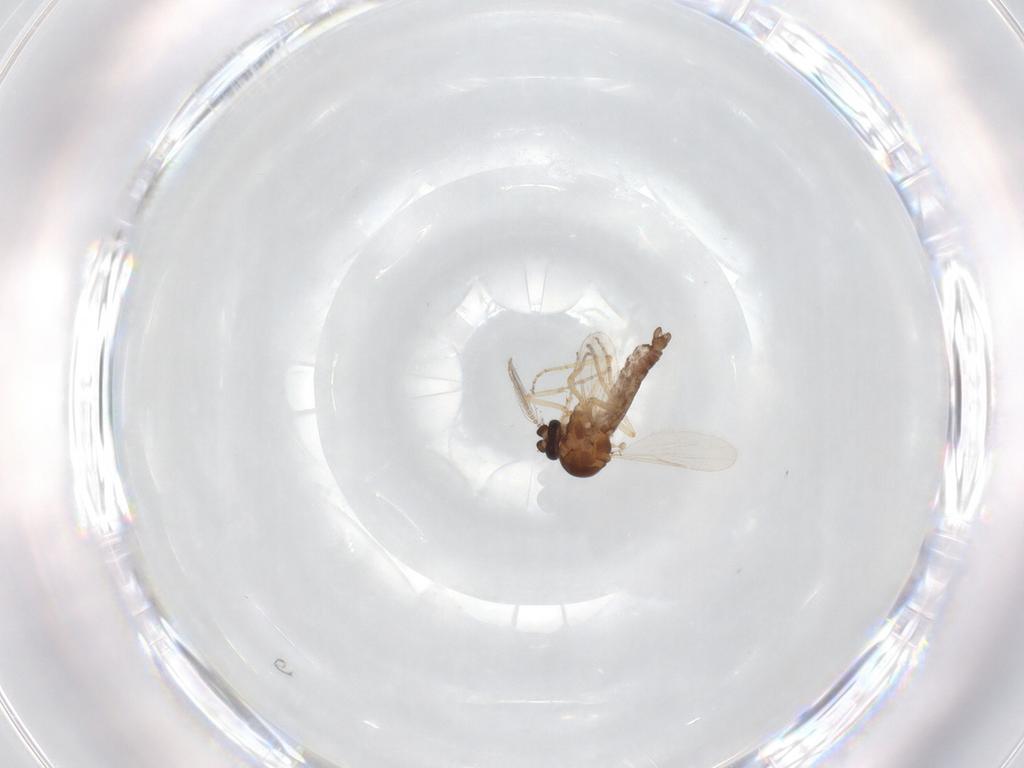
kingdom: Animalia
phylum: Arthropoda
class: Insecta
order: Diptera
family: Ceratopogonidae
